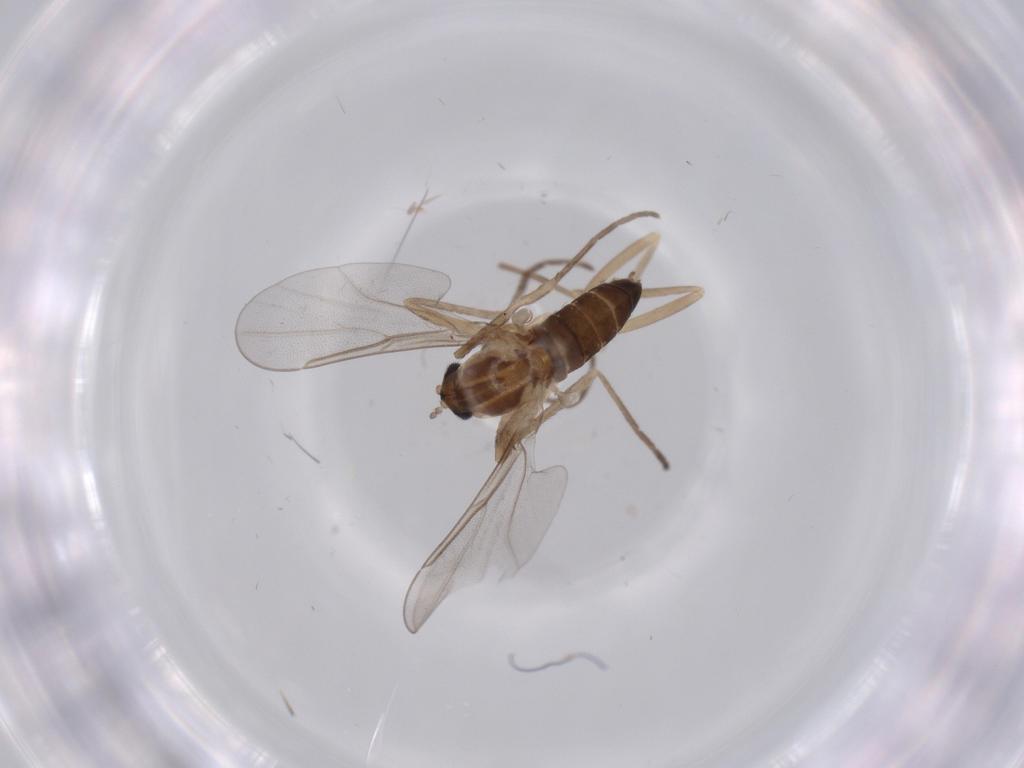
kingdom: Animalia
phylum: Arthropoda
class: Insecta
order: Diptera
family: Cecidomyiidae
